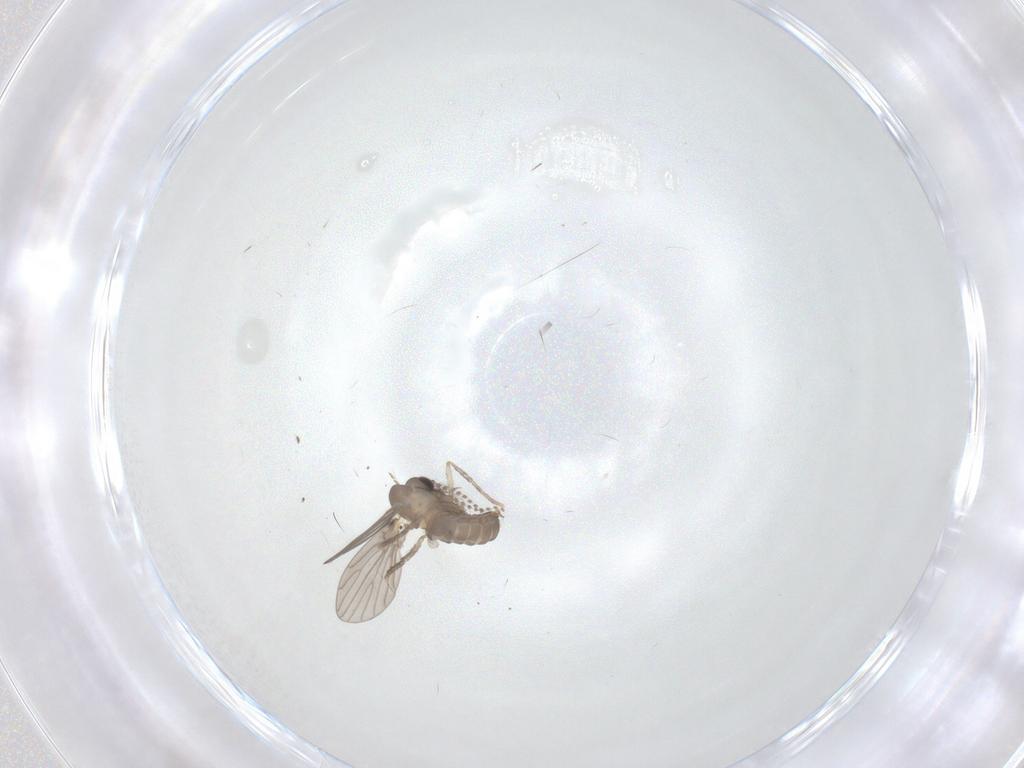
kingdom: Animalia
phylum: Arthropoda
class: Insecta
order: Diptera
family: Psychodidae
